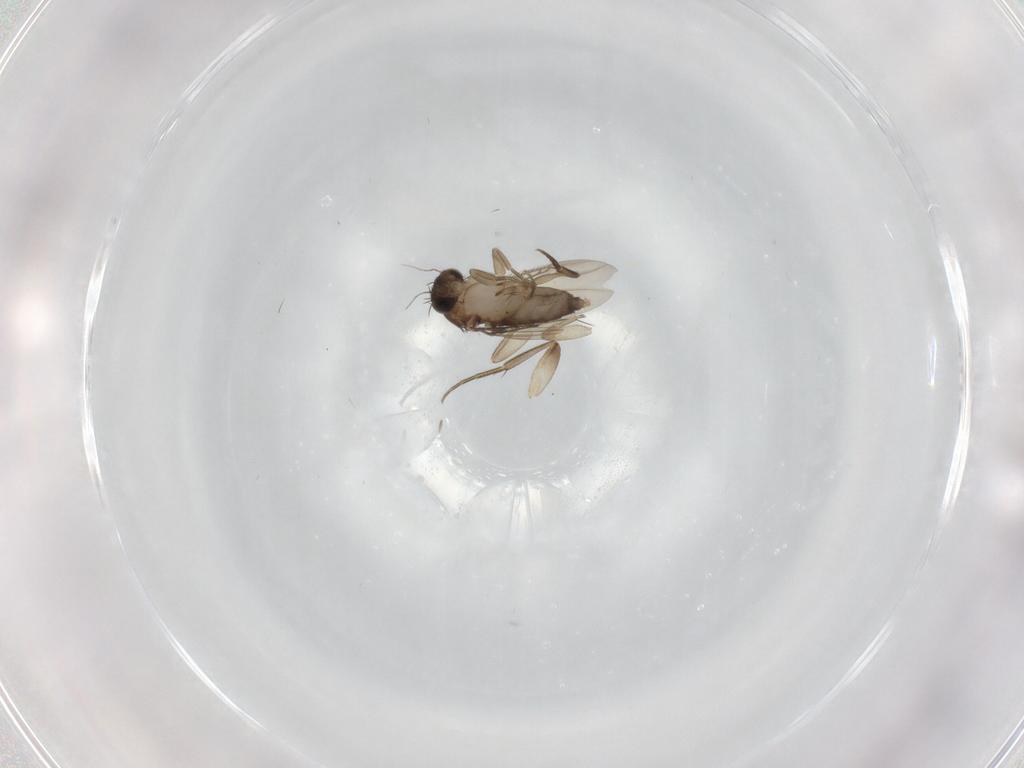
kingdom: Animalia
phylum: Arthropoda
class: Insecta
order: Diptera
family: Phoridae
